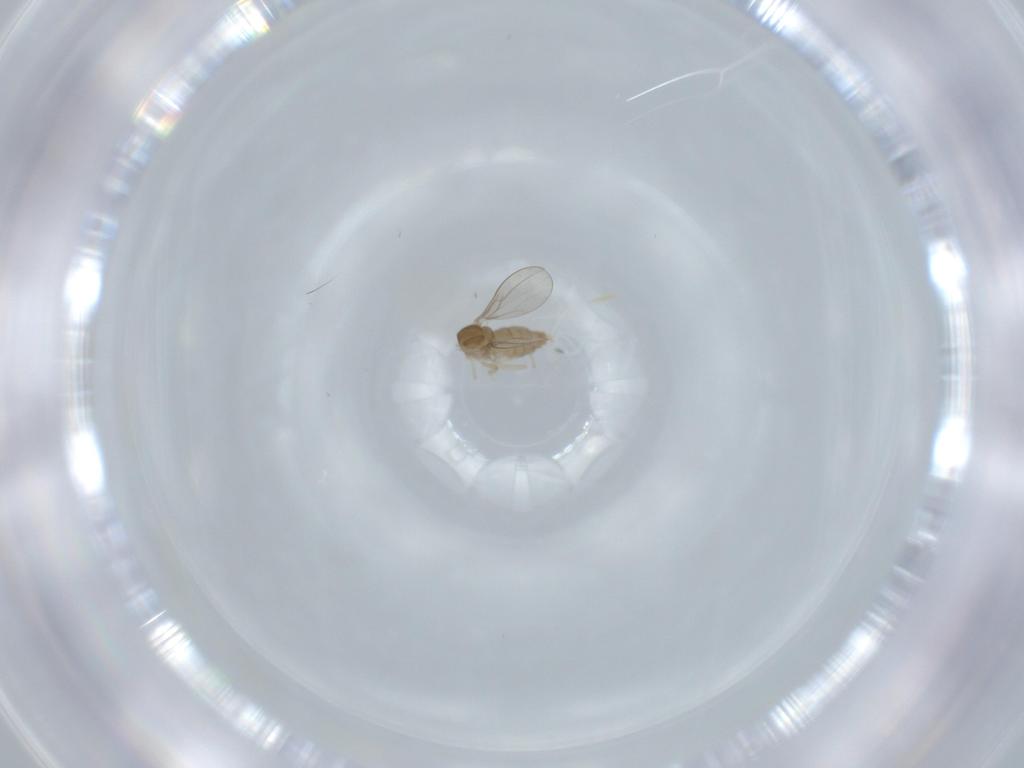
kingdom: Animalia
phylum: Arthropoda
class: Insecta
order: Diptera
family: Cecidomyiidae
